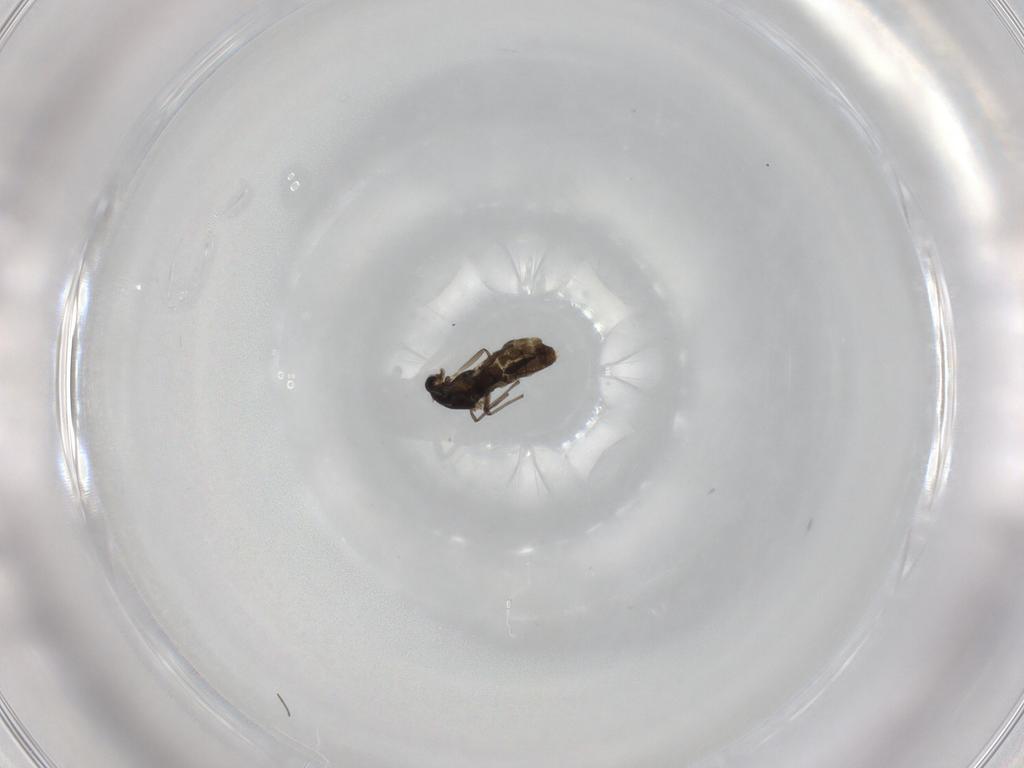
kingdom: Animalia
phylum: Arthropoda
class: Insecta
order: Diptera
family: Chironomidae
